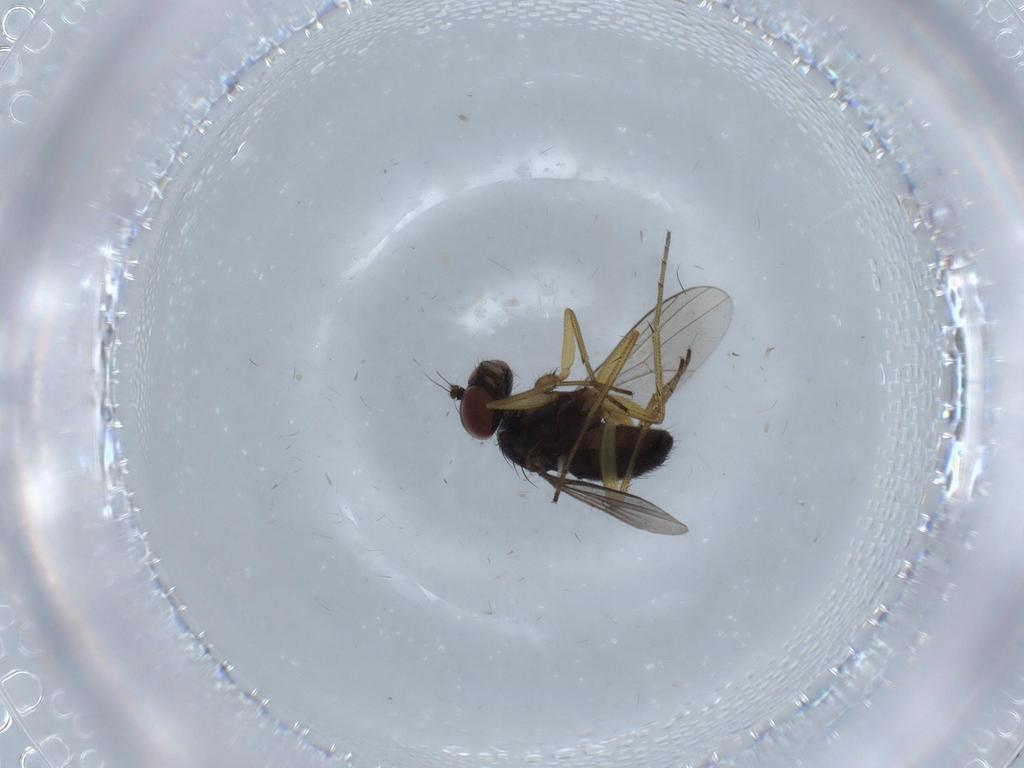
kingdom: Animalia
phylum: Arthropoda
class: Insecta
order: Diptera
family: Dolichopodidae
